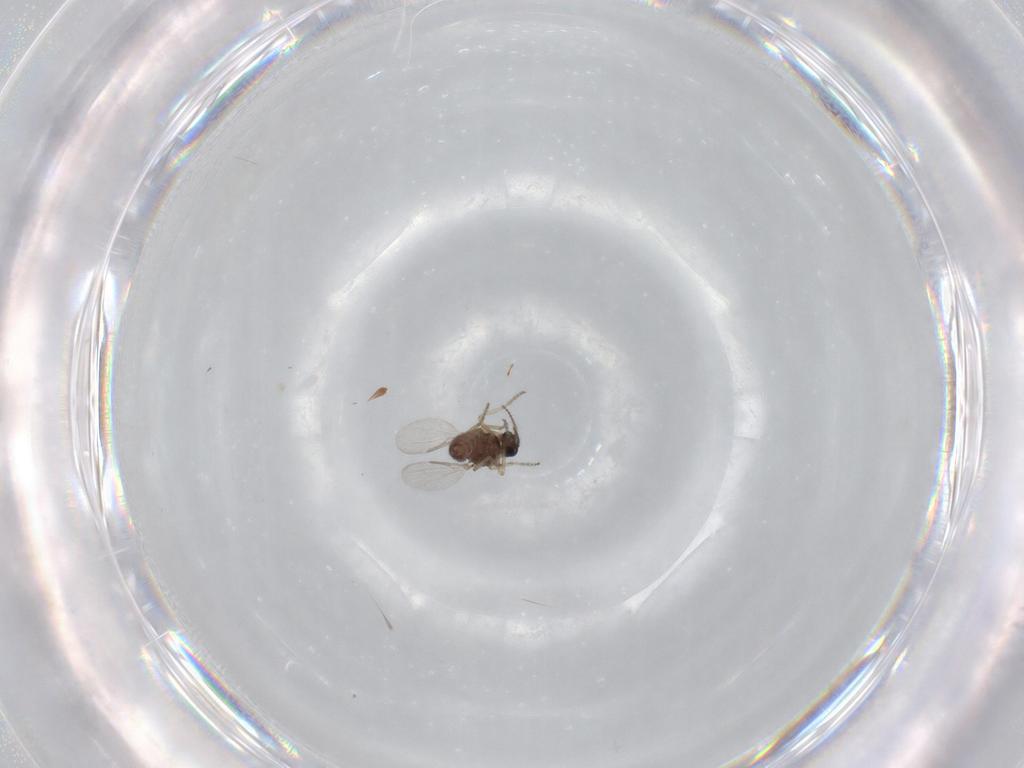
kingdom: Animalia
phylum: Arthropoda
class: Insecta
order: Diptera
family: Ceratopogonidae
